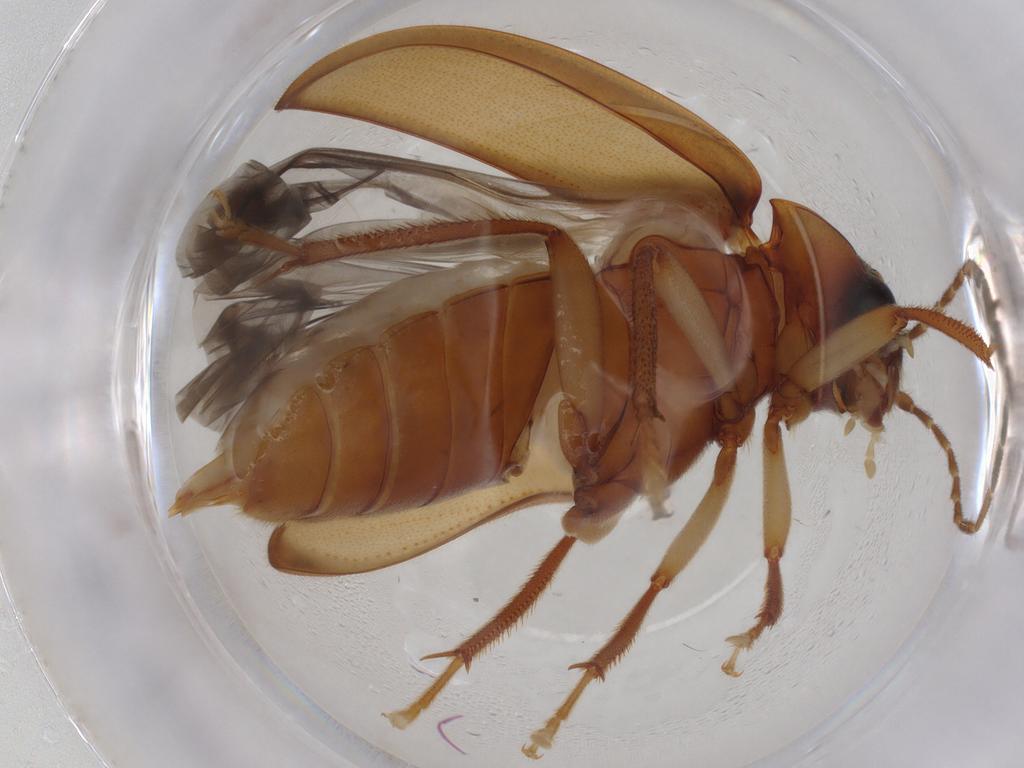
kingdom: Animalia
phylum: Arthropoda
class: Insecta
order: Coleoptera
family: Ptilodactylidae
